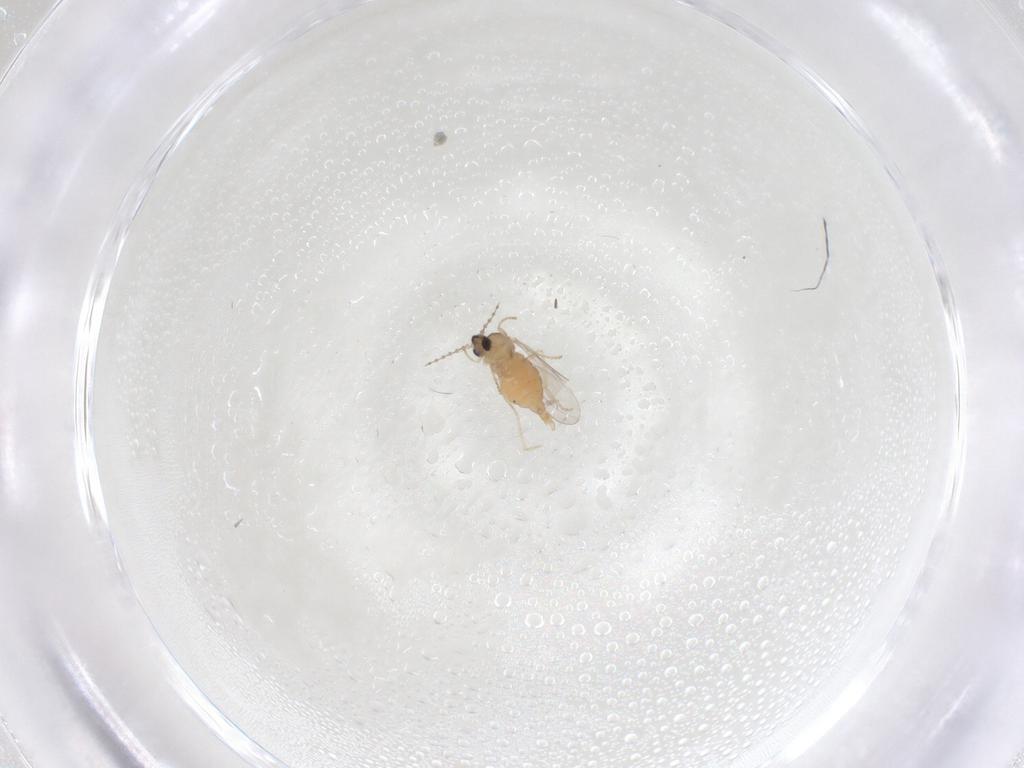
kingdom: Animalia
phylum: Arthropoda
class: Insecta
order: Diptera
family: Cecidomyiidae
